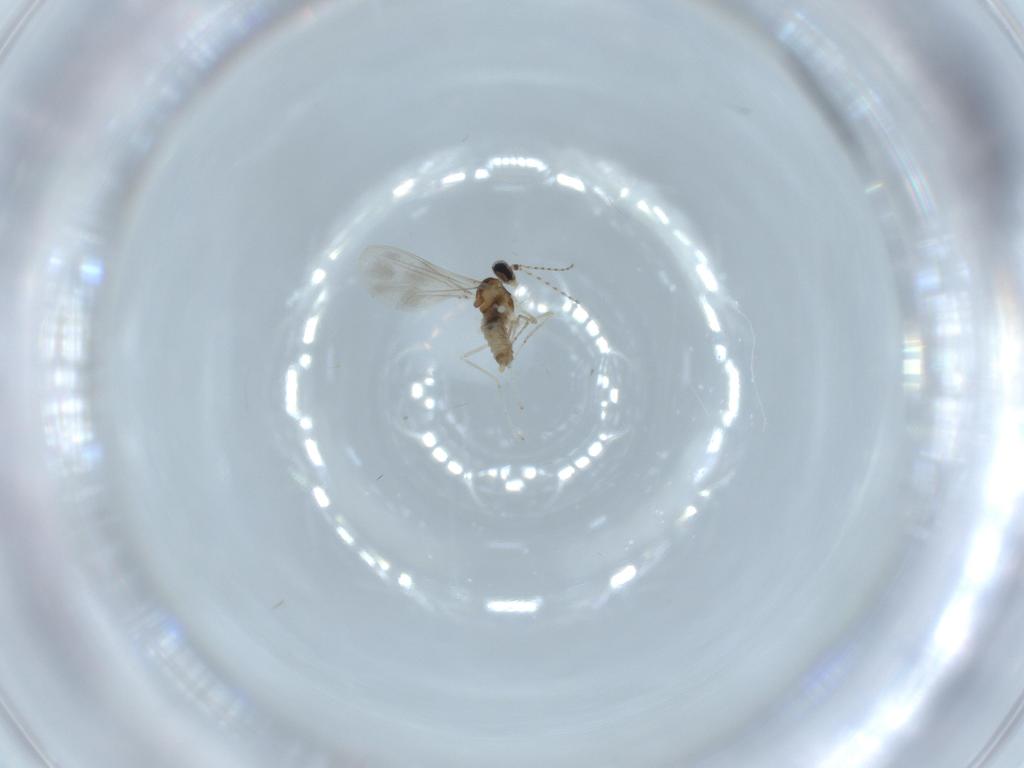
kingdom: Animalia
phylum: Arthropoda
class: Insecta
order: Diptera
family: Cecidomyiidae
